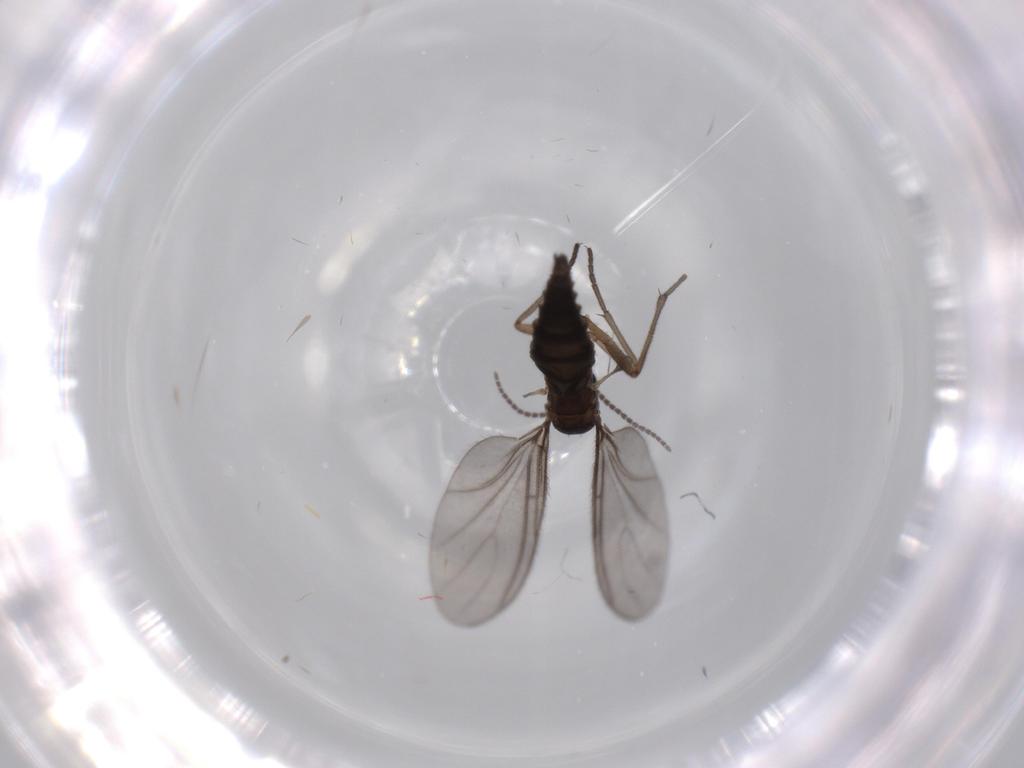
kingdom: Animalia
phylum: Arthropoda
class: Insecta
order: Diptera
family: Sciaridae
